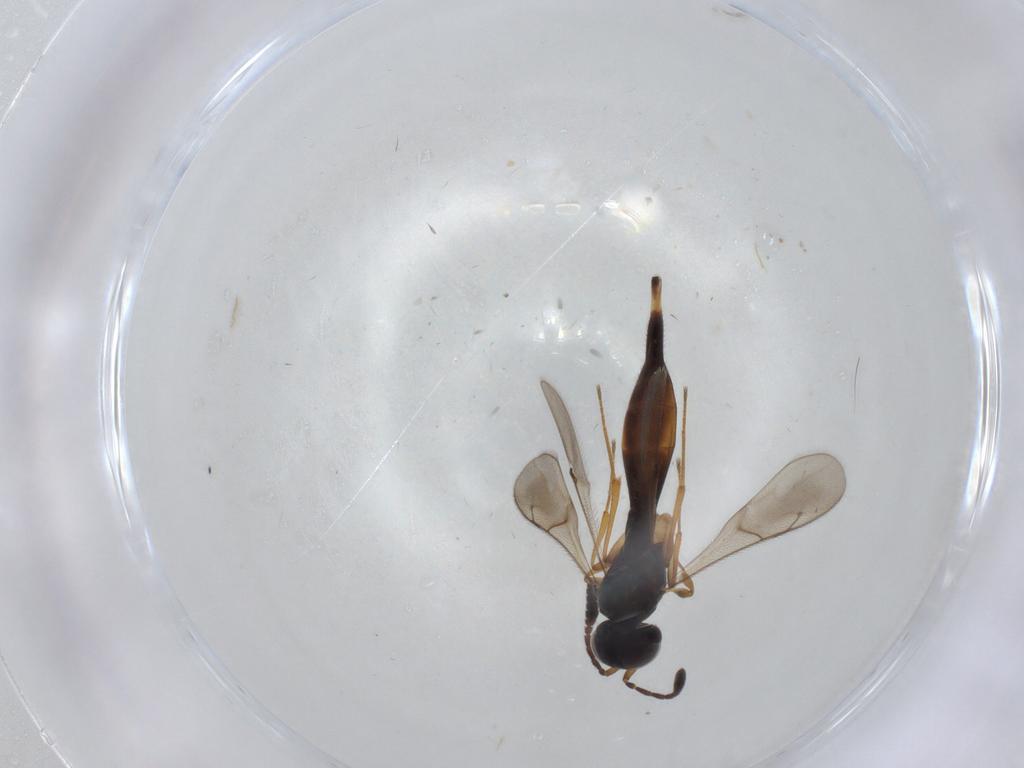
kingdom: Animalia
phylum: Arthropoda
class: Insecta
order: Hymenoptera
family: Scelionidae
